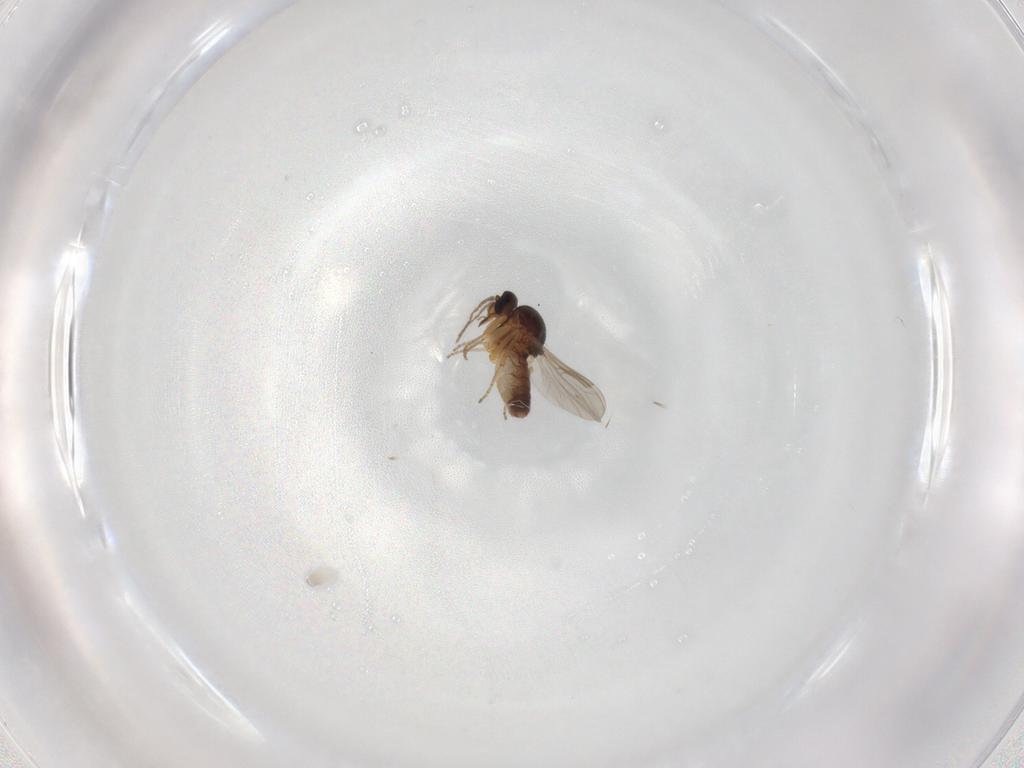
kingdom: Animalia
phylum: Arthropoda
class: Insecta
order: Diptera
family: Ceratopogonidae
